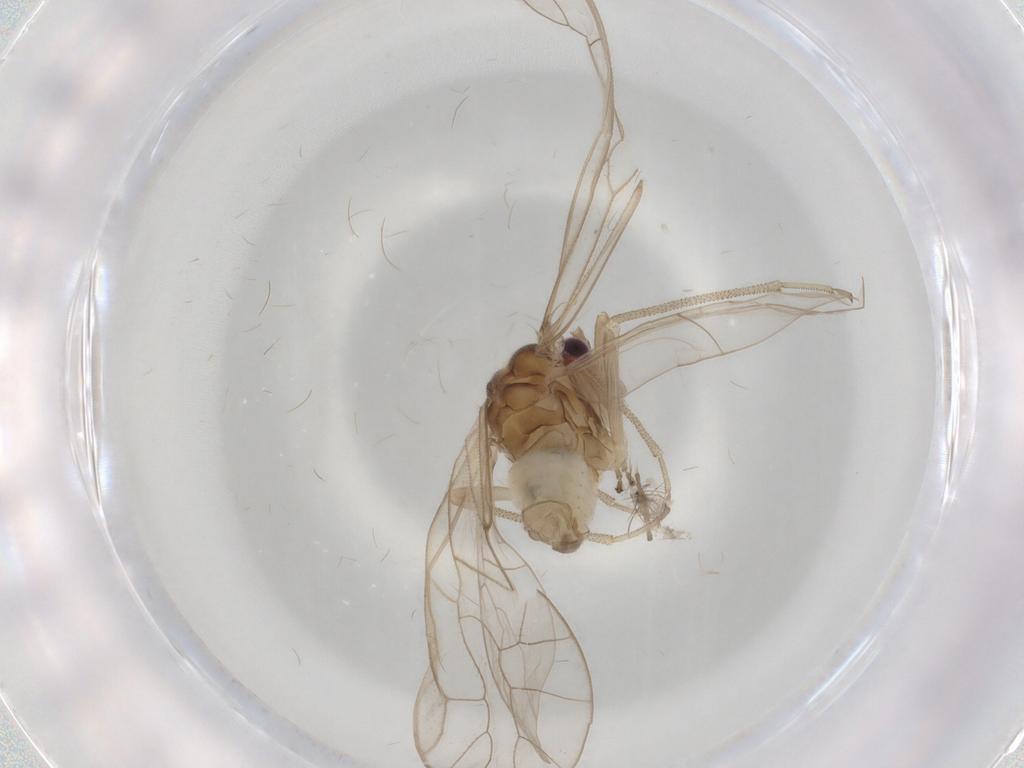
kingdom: Animalia
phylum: Arthropoda
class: Insecta
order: Psocodea
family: Stenopsocidae
